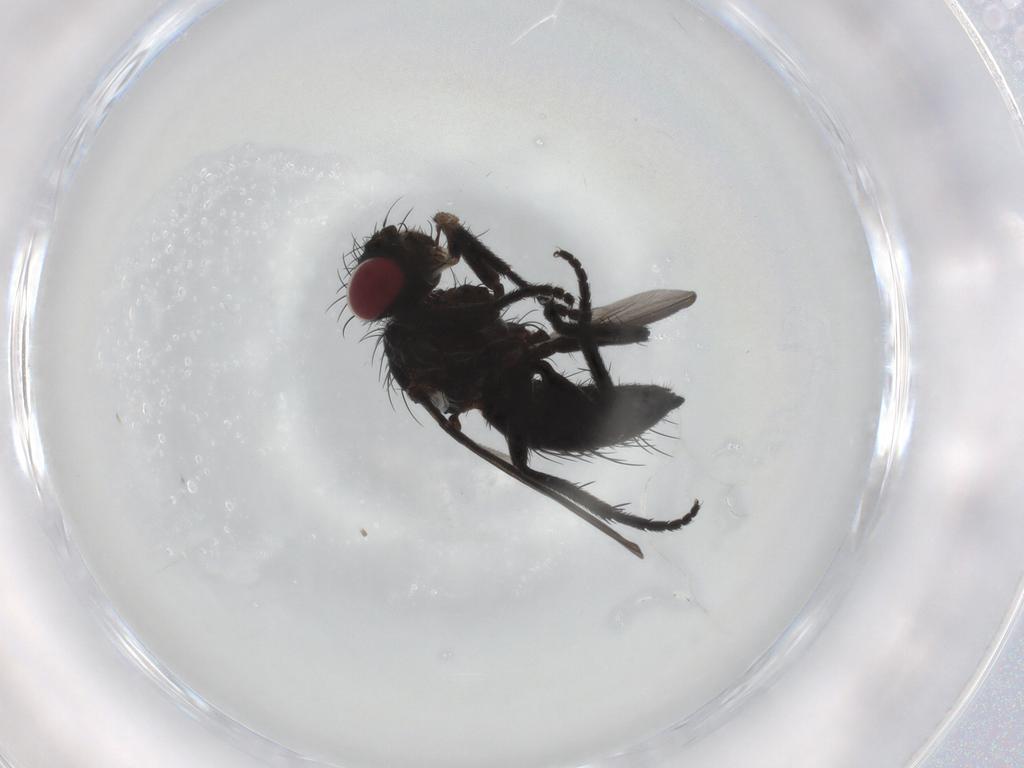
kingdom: Animalia
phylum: Arthropoda
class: Insecta
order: Diptera
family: Tachinidae
